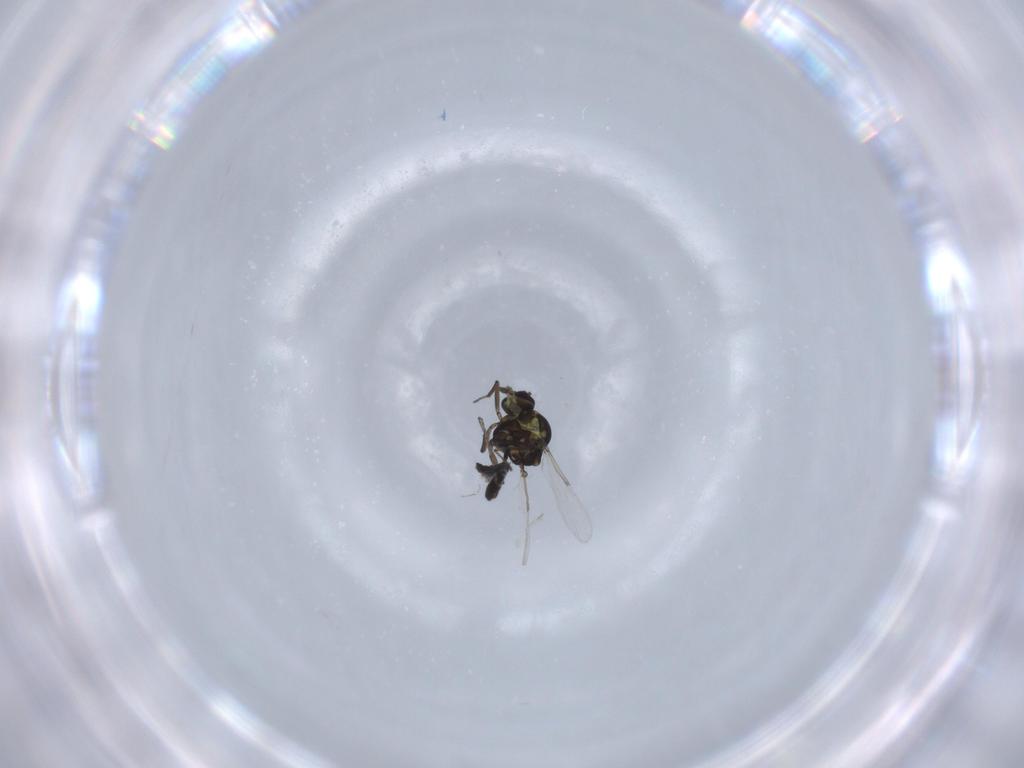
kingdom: Animalia
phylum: Arthropoda
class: Insecta
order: Diptera
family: Ceratopogonidae
